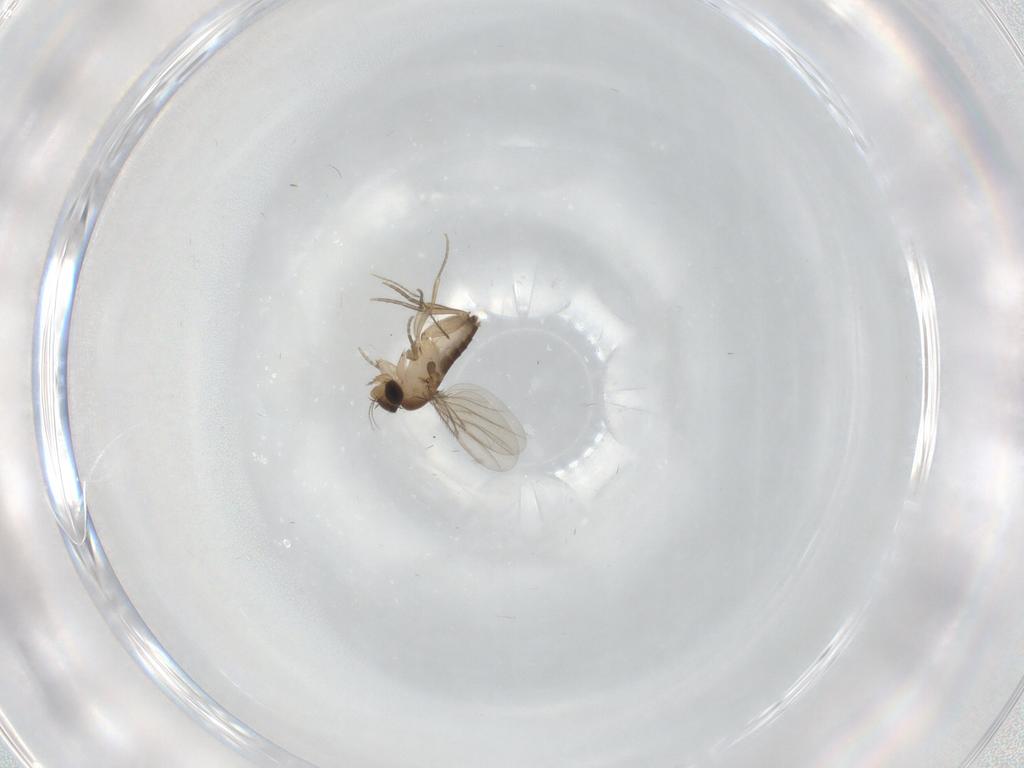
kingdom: Animalia
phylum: Arthropoda
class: Insecta
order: Diptera
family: Phoridae
